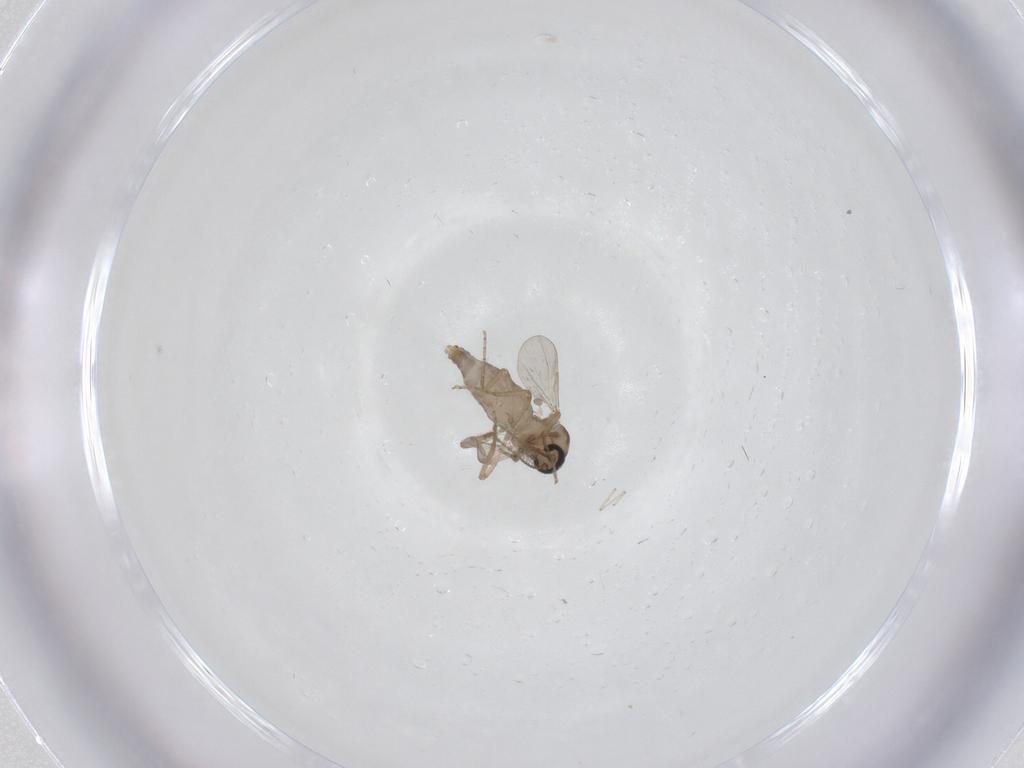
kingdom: Animalia
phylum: Arthropoda
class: Insecta
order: Diptera
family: Ceratopogonidae
